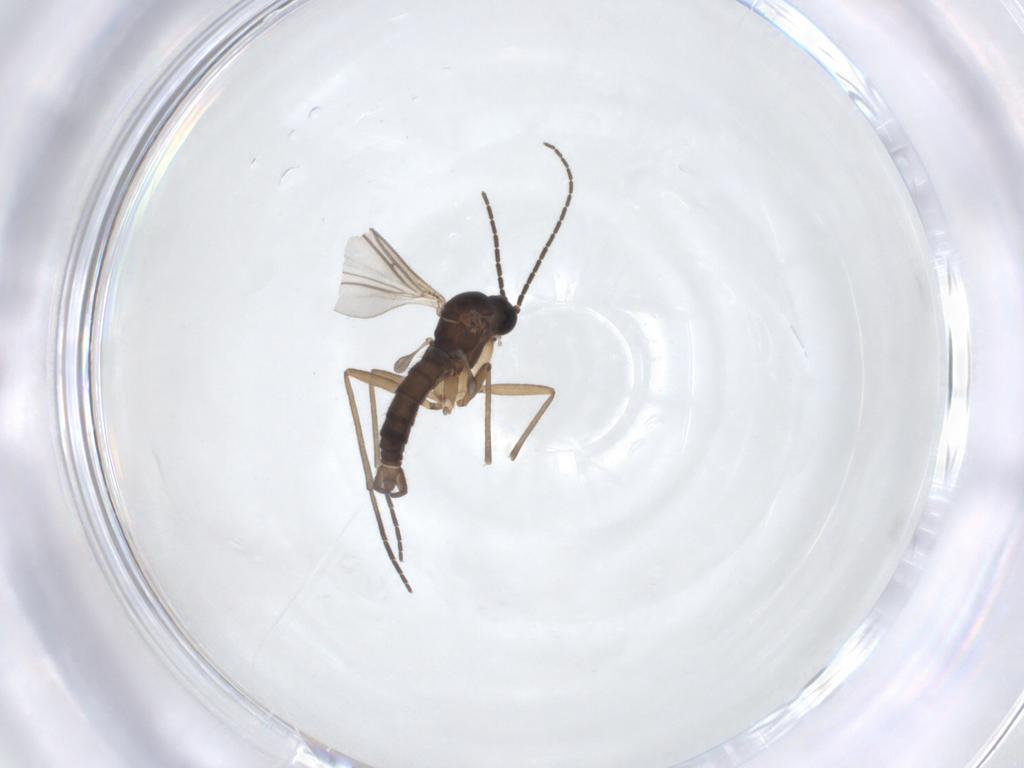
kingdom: Animalia
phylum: Arthropoda
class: Insecta
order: Diptera
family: Sciaridae
